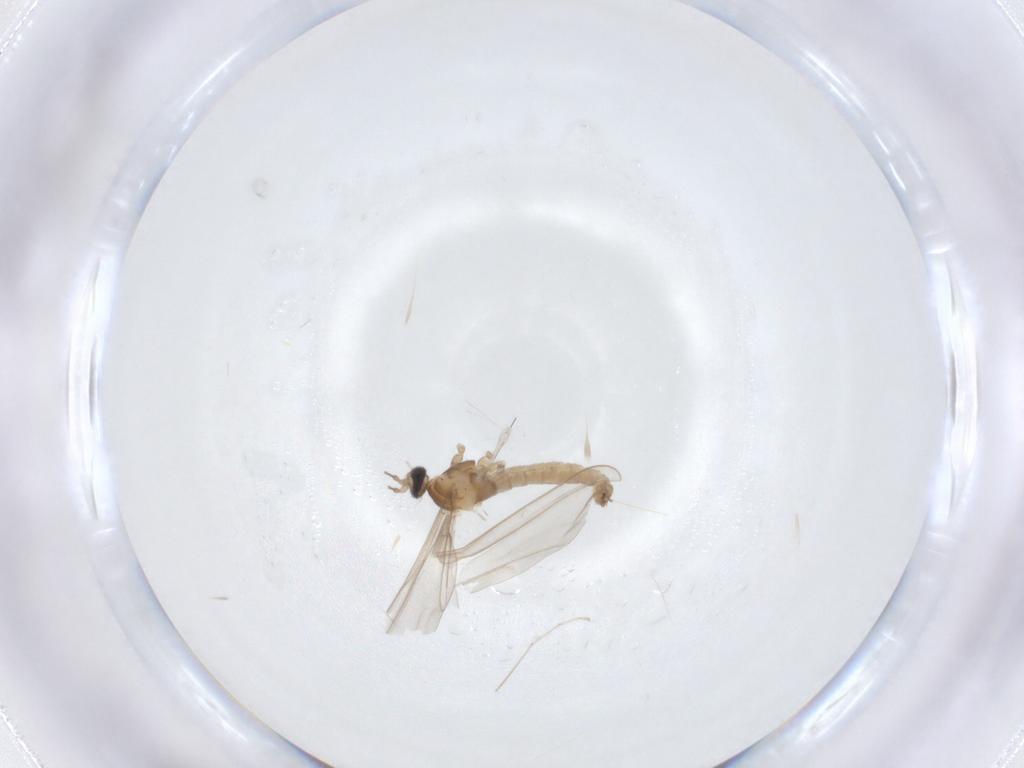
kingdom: Animalia
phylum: Arthropoda
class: Insecta
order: Diptera
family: Cecidomyiidae
